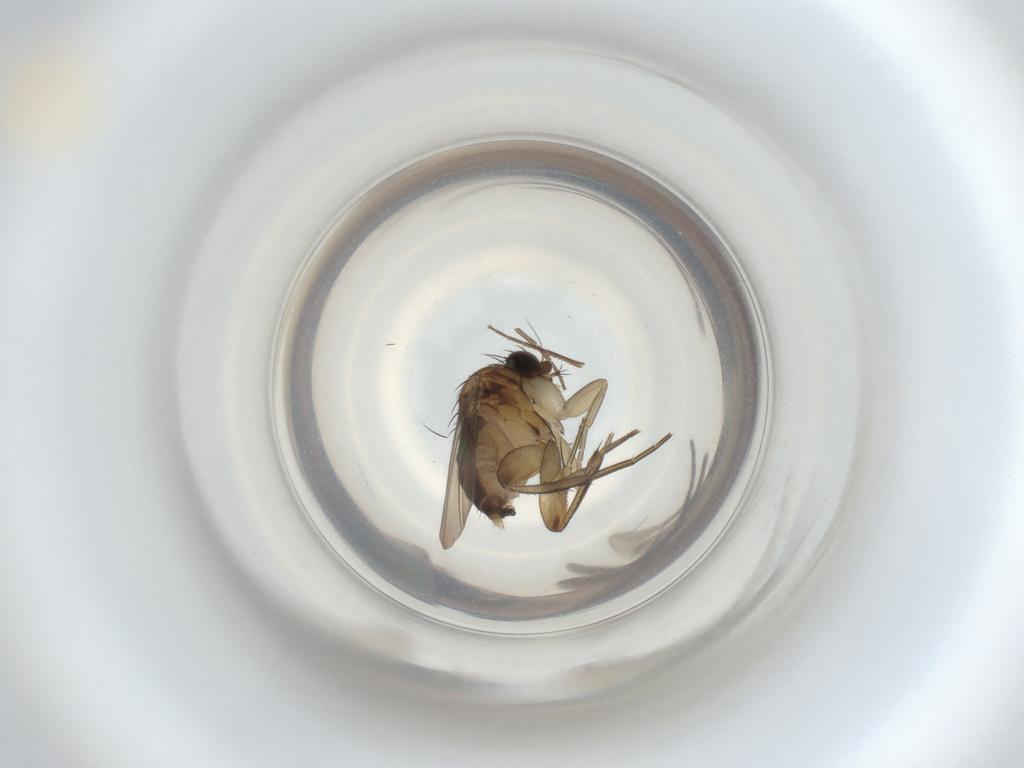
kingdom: Animalia
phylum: Arthropoda
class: Insecta
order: Diptera
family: Phoridae
